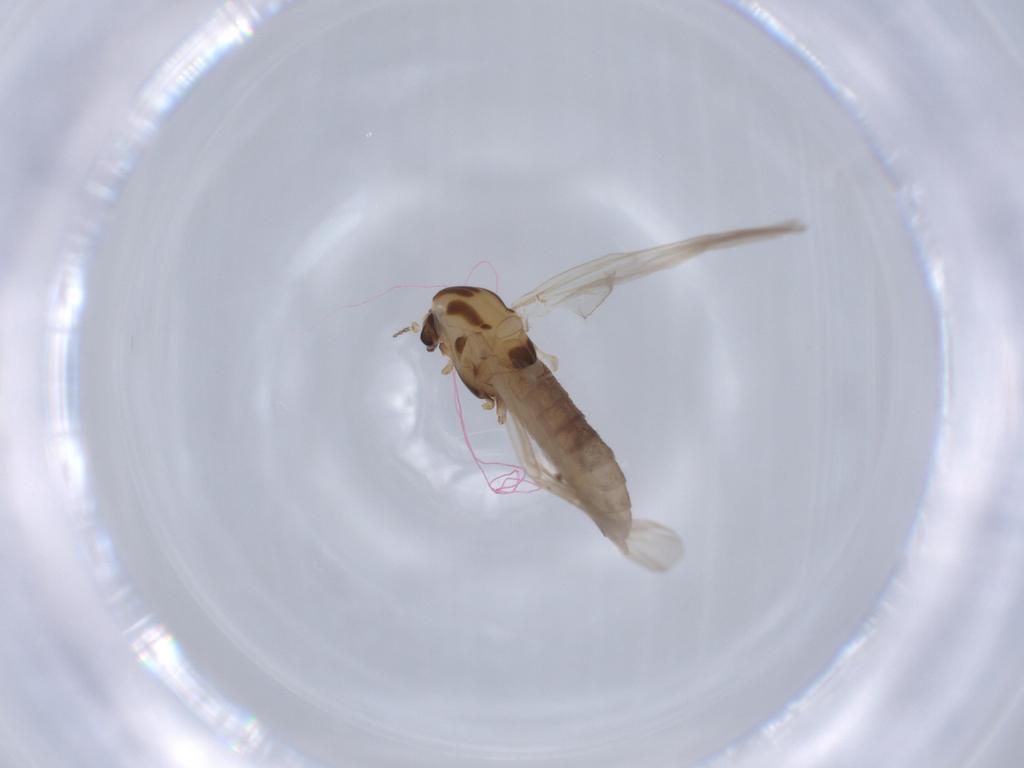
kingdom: Animalia
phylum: Arthropoda
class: Insecta
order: Diptera
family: Chironomidae
